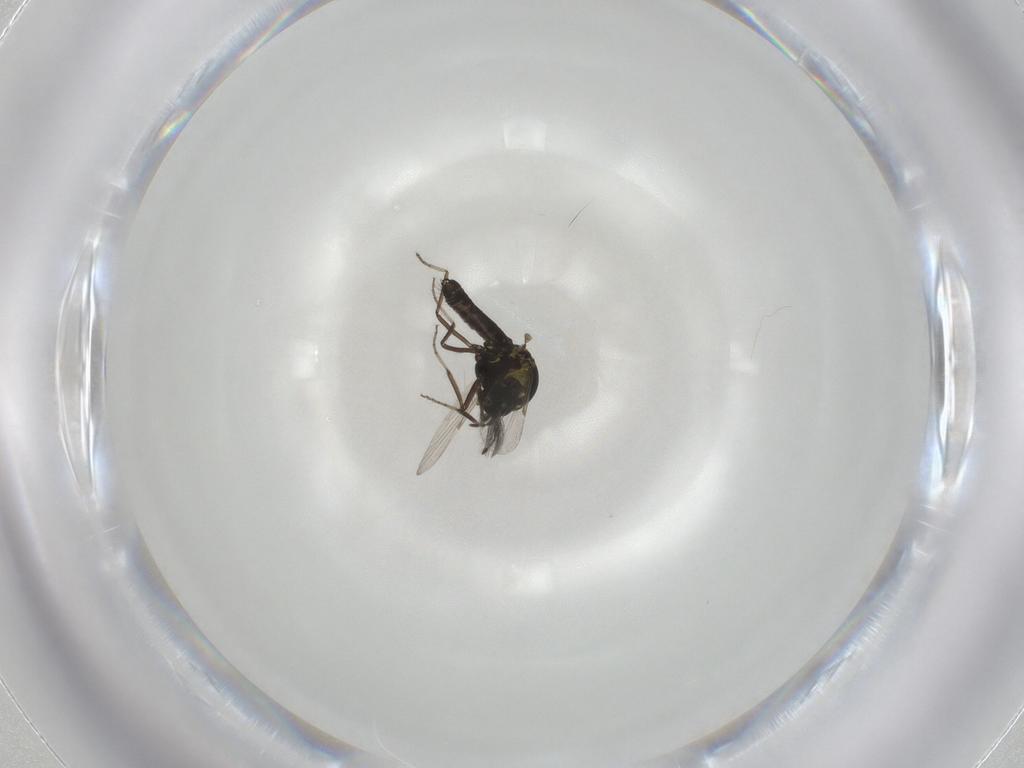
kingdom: Animalia
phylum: Arthropoda
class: Insecta
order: Diptera
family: Ceratopogonidae
